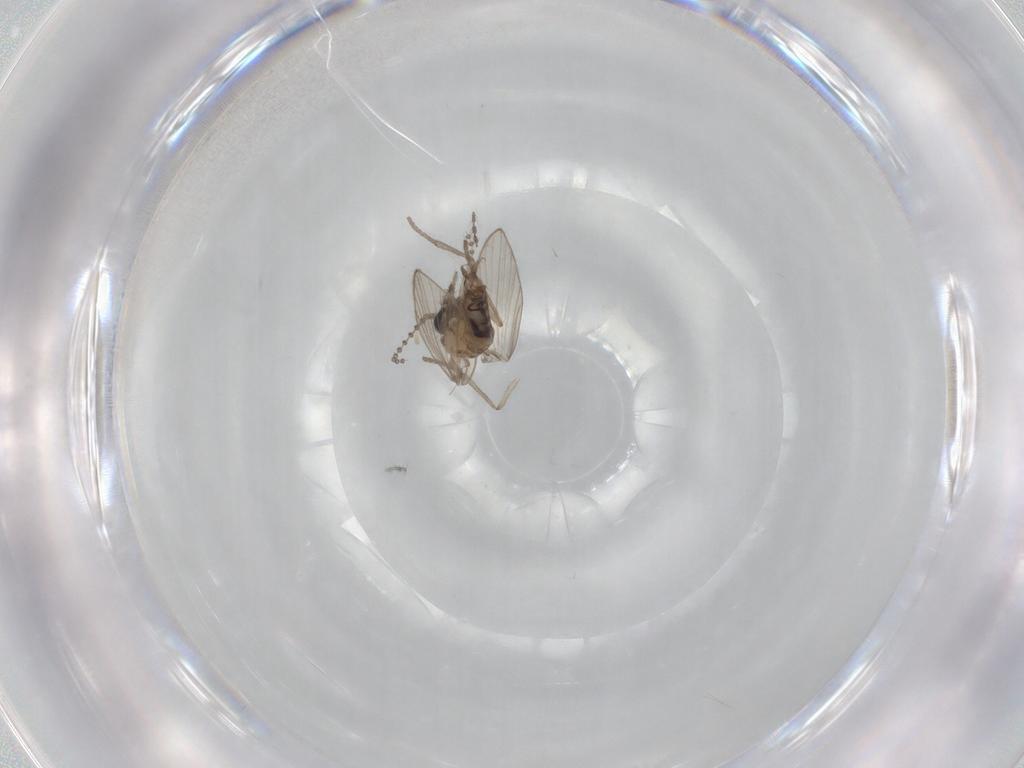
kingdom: Animalia
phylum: Arthropoda
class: Insecta
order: Diptera
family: Psychodidae
